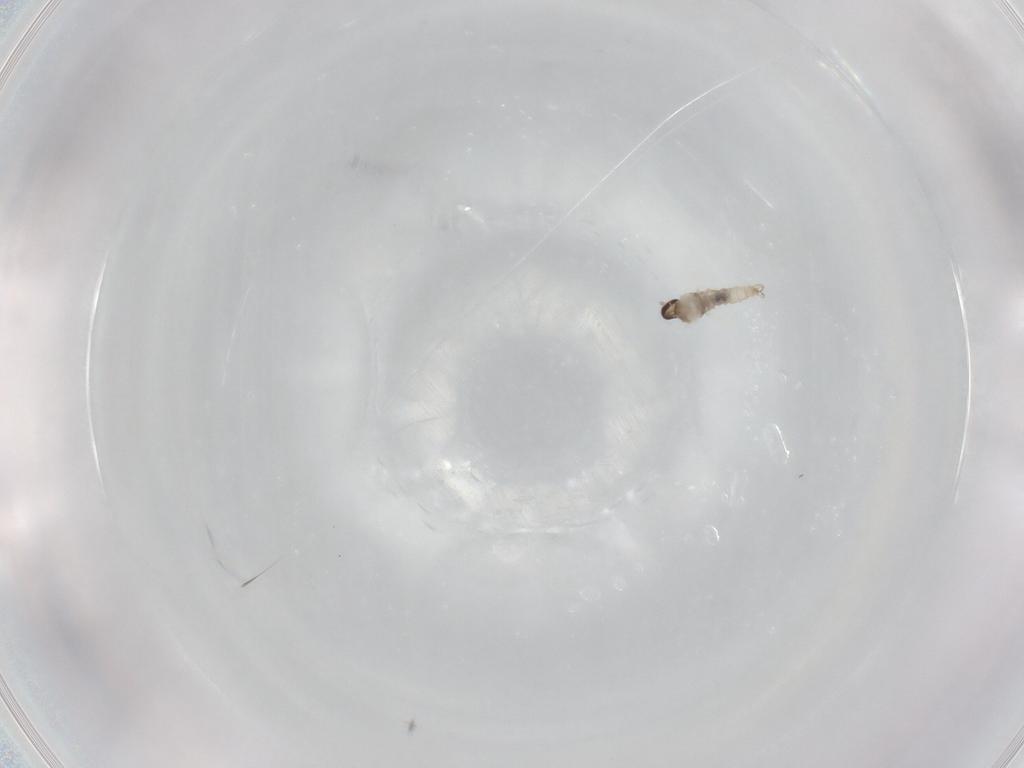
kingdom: Animalia
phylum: Arthropoda
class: Insecta
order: Diptera
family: Cecidomyiidae
